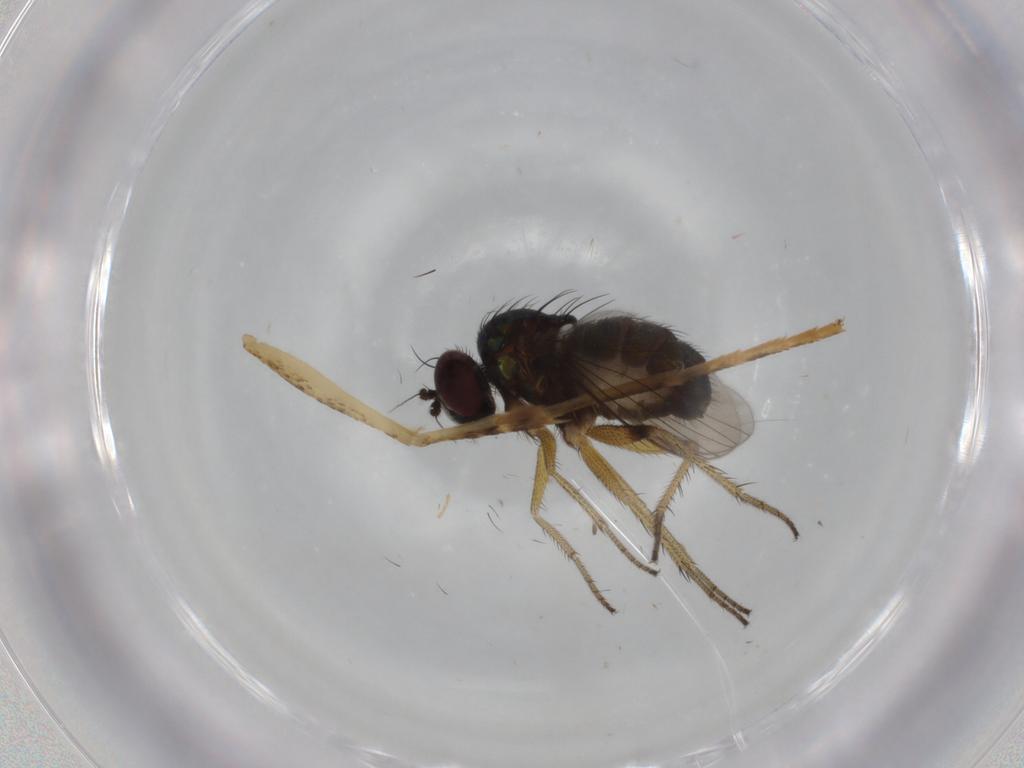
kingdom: Animalia
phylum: Arthropoda
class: Insecta
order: Diptera
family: Dolichopodidae
